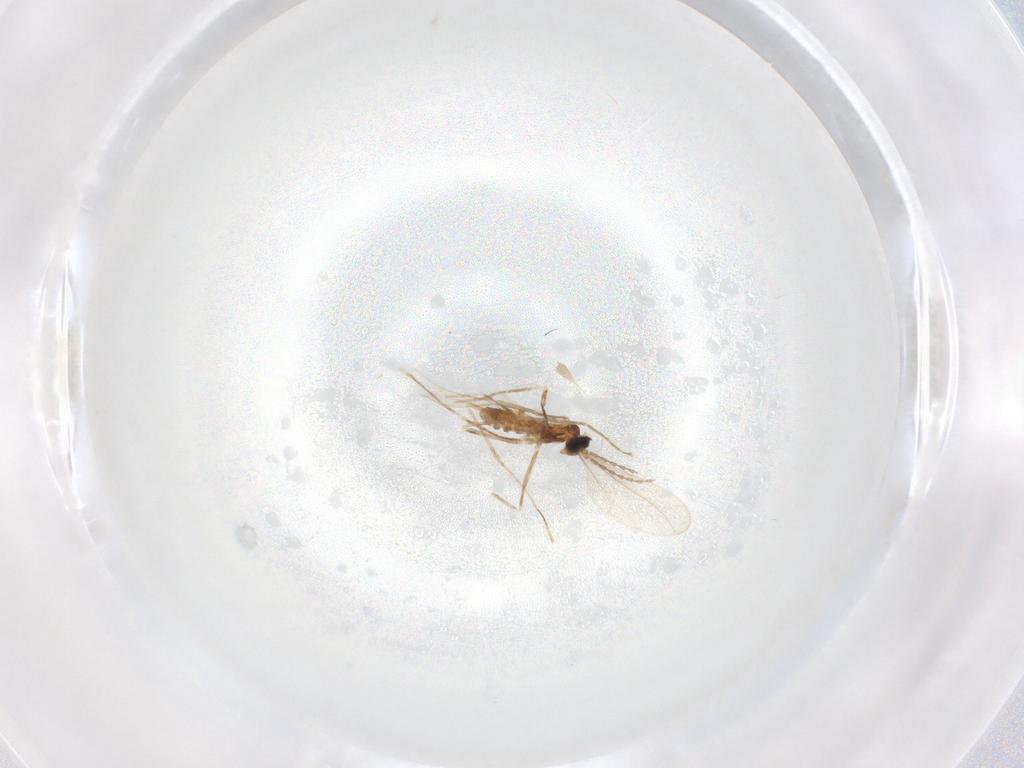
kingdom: Animalia
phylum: Arthropoda
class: Insecta
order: Diptera
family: Cecidomyiidae
